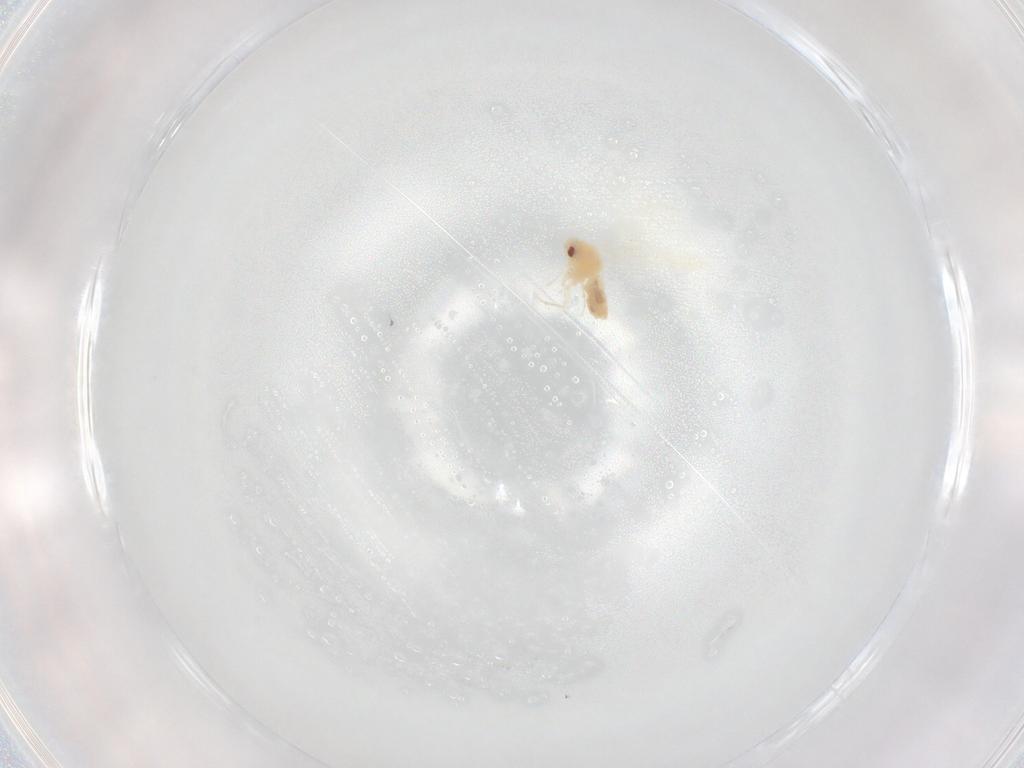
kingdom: Animalia
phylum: Arthropoda
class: Insecta
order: Hemiptera
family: Aleyrodidae
